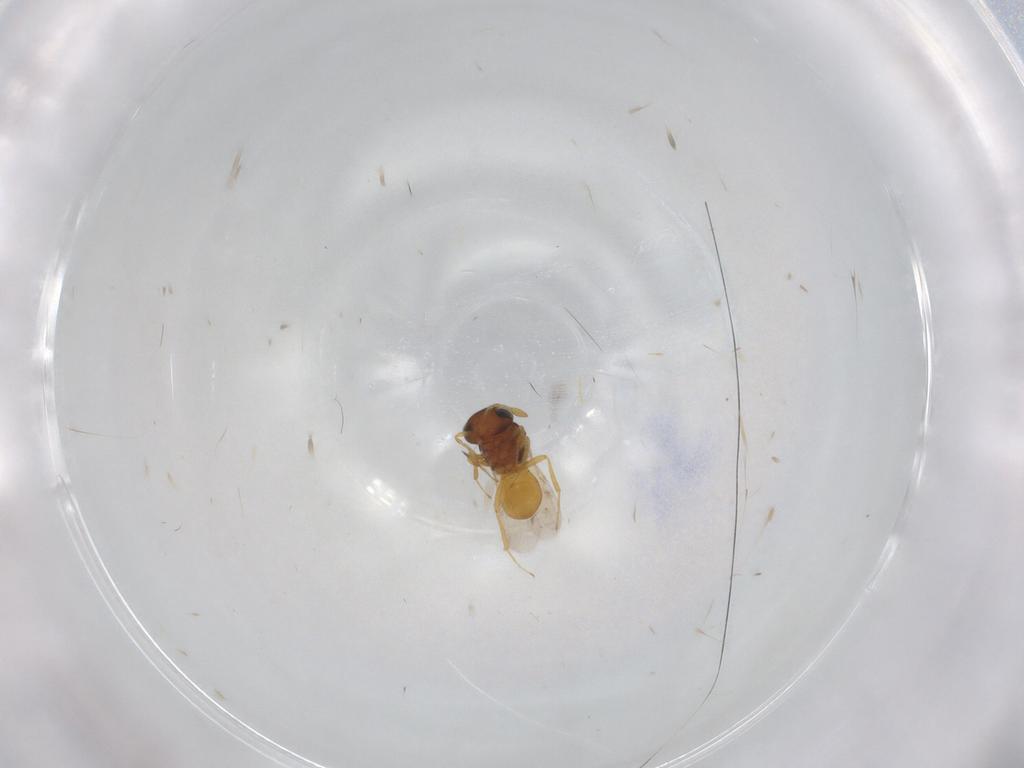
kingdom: Animalia
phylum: Arthropoda
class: Insecta
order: Hymenoptera
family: Scelionidae
